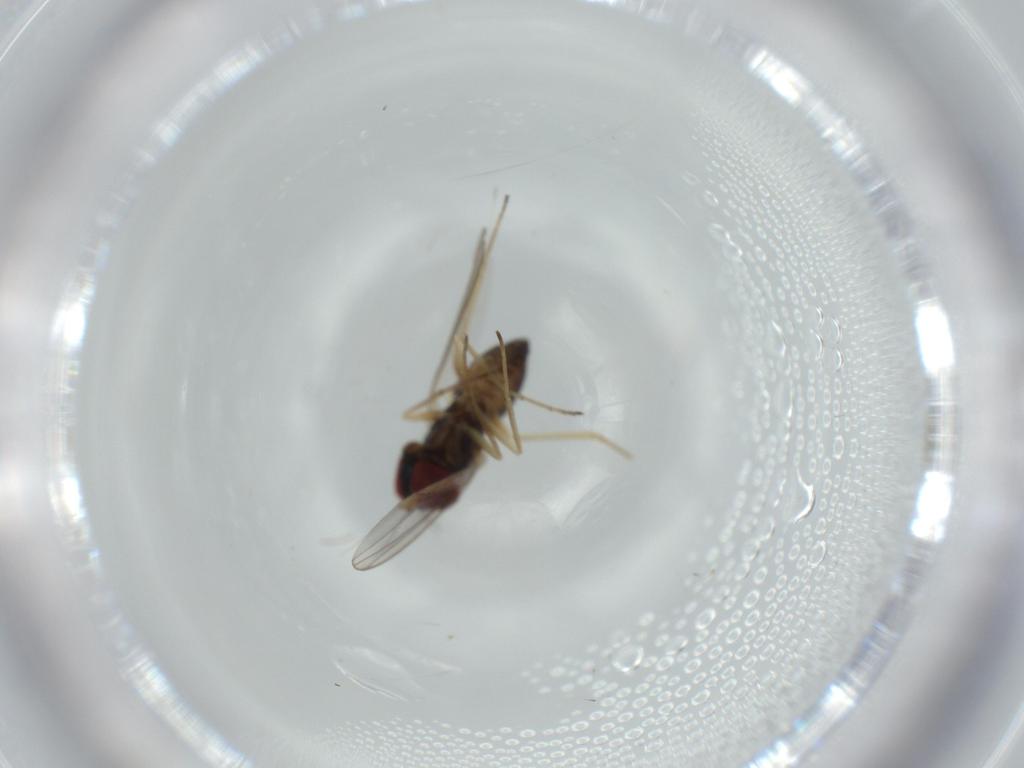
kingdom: Animalia
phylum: Arthropoda
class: Insecta
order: Diptera
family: Dolichopodidae
